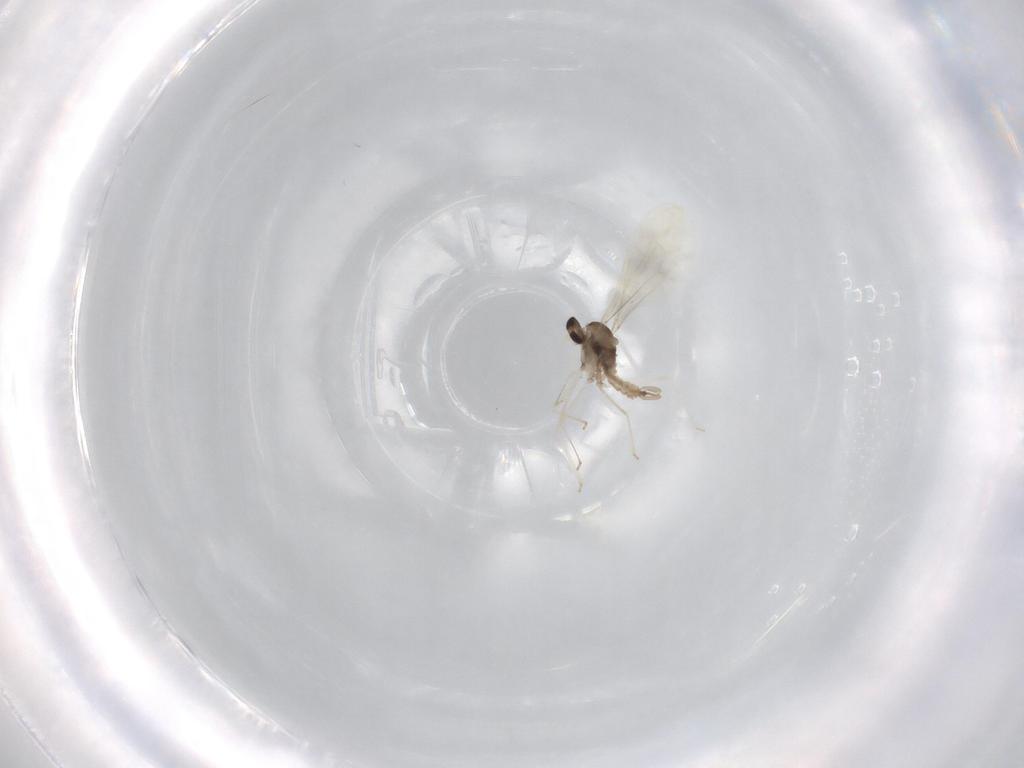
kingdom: Animalia
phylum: Arthropoda
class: Insecta
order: Diptera
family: Cecidomyiidae
